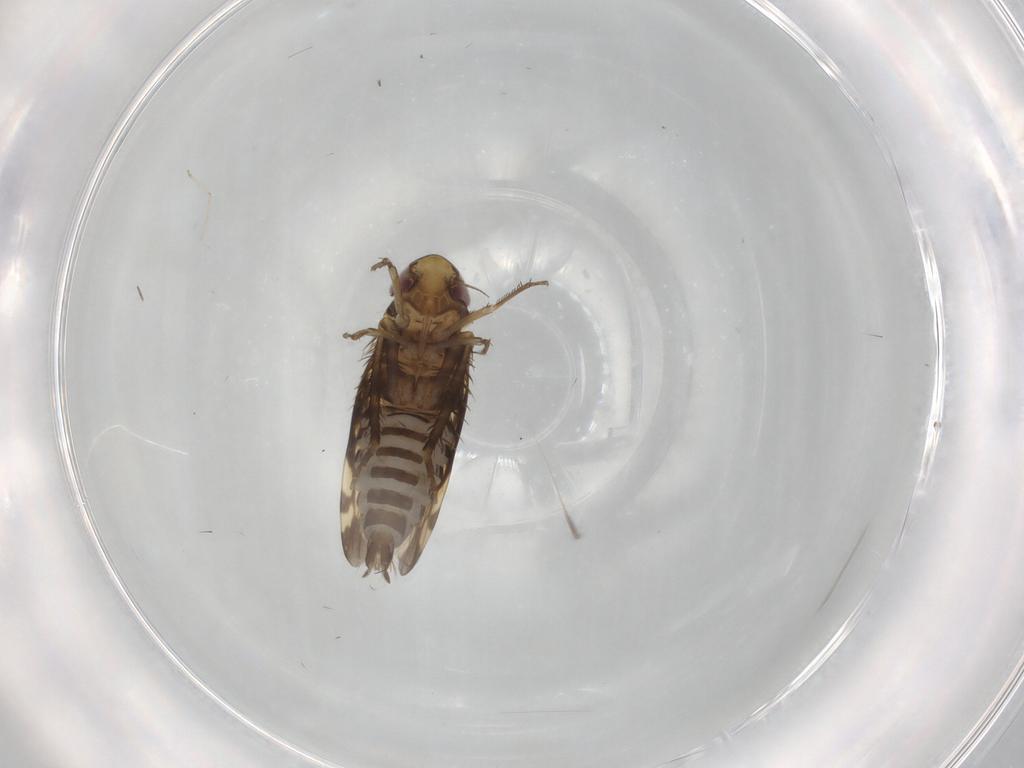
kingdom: Animalia
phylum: Arthropoda
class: Insecta
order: Hemiptera
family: Cicadellidae
